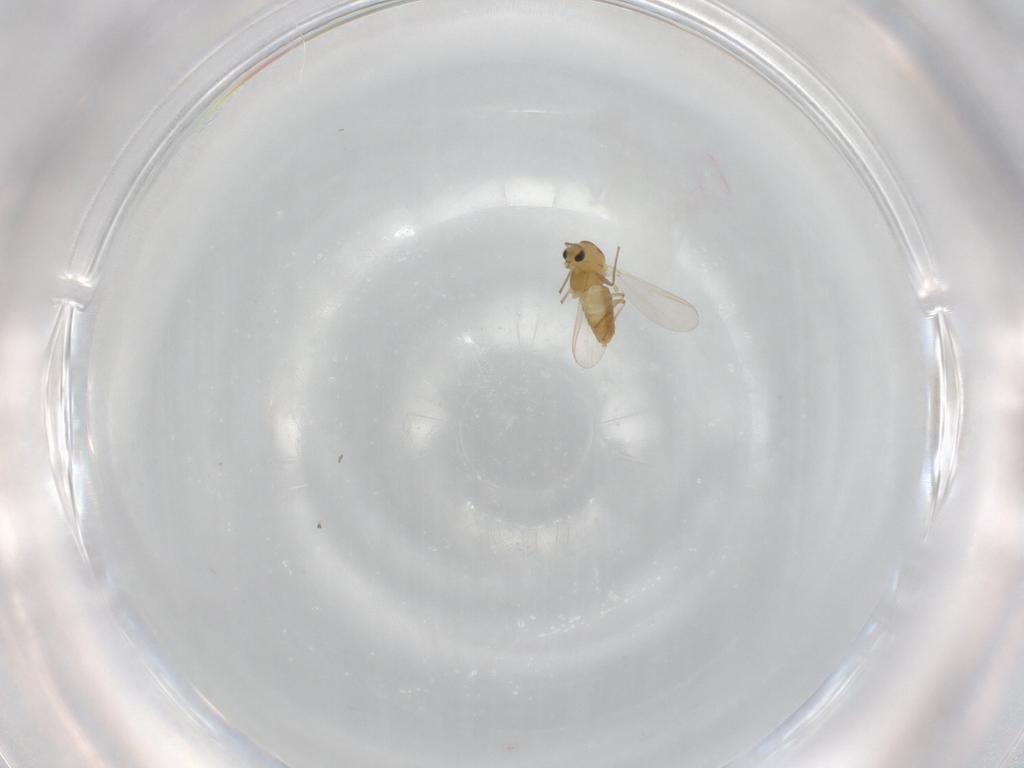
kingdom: Animalia
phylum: Arthropoda
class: Insecta
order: Diptera
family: Chironomidae
